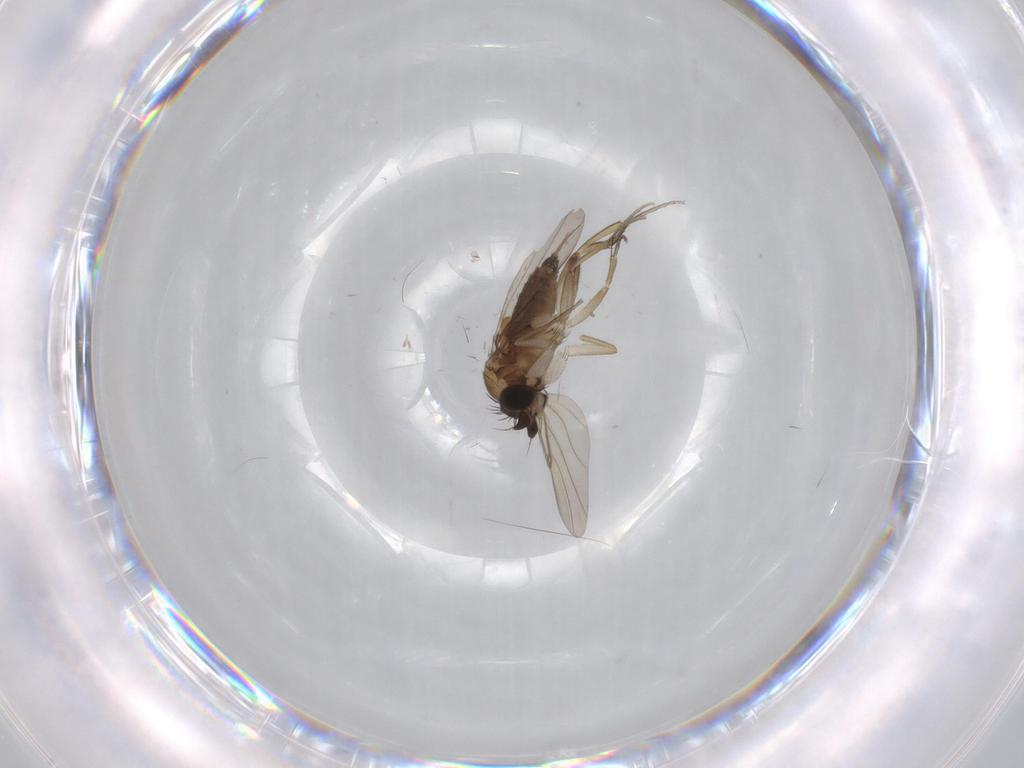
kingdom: Animalia
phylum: Arthropoda
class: Insecta
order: Diptera
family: Phoridae
